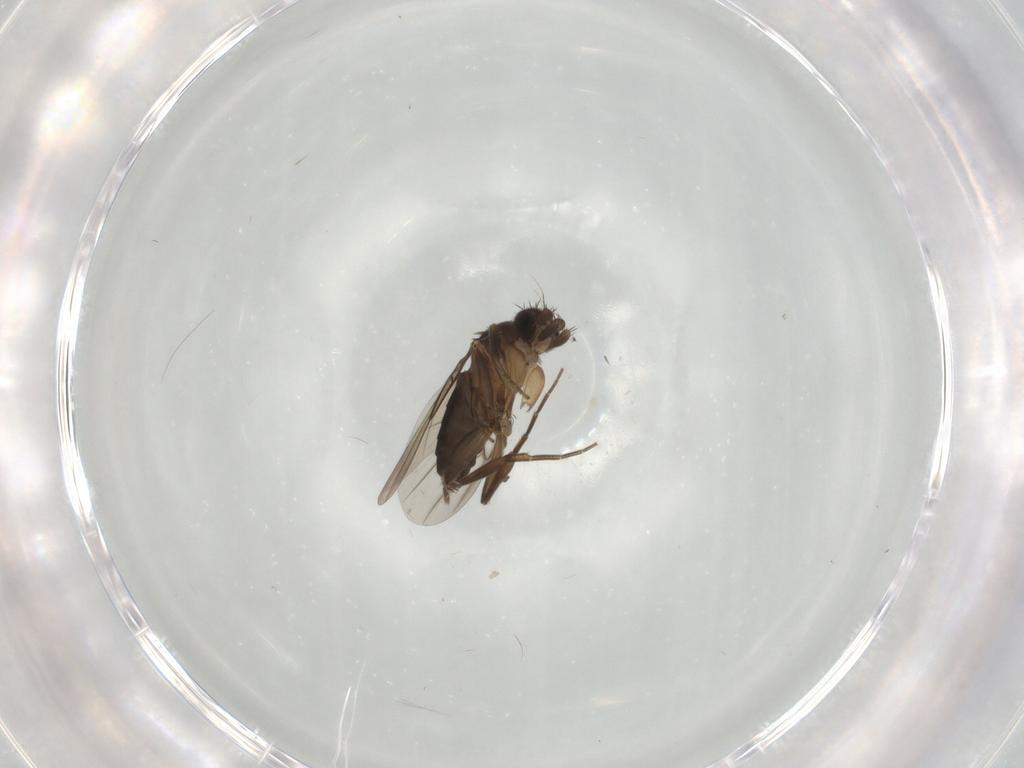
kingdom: Animalia
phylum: Arthropoda
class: Insecta
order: Diptera
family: Phoridae
